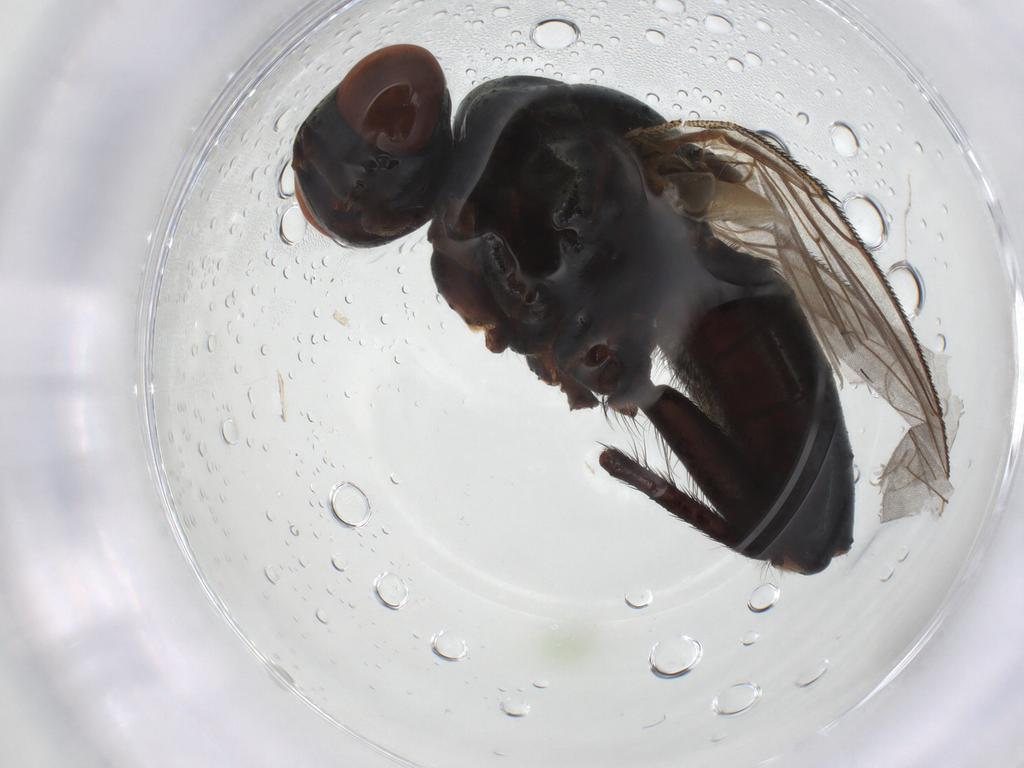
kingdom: Animalia
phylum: Arthropoda
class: Insecta
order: Diptera
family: Sarcophagidae
